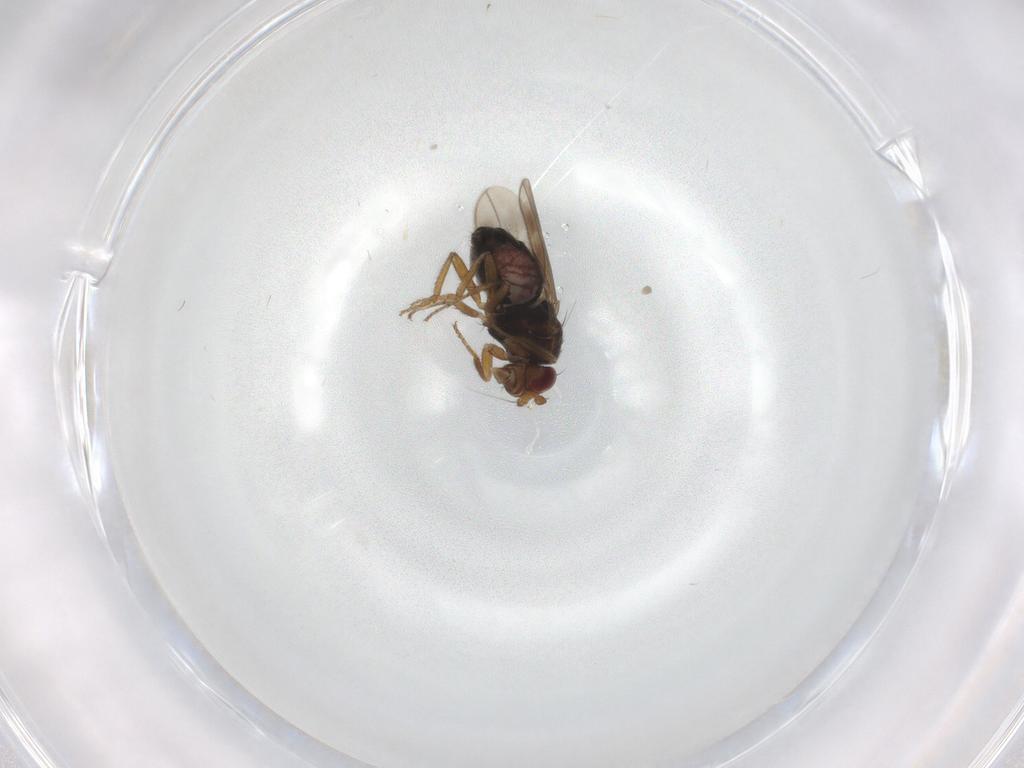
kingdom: Animalia
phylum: Arthropoda
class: Insecta
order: Diptera
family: Sphaeroceridae
